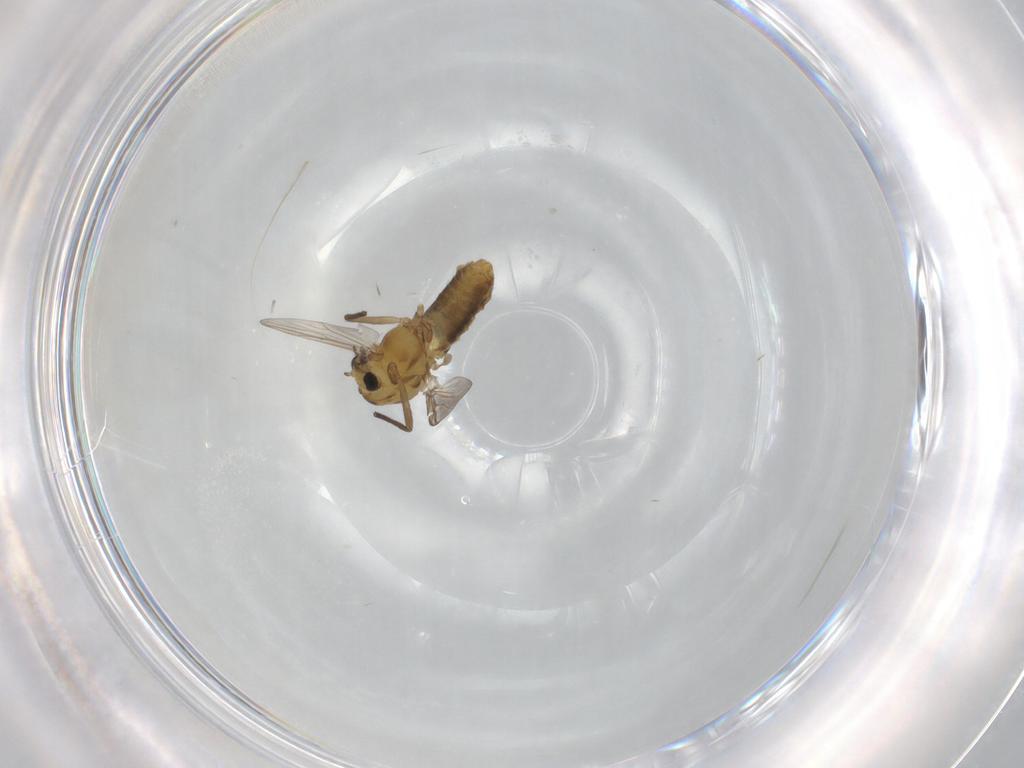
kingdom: Animalia
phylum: Arthropoda
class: Insecta
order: Diptera
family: Chironomidae
